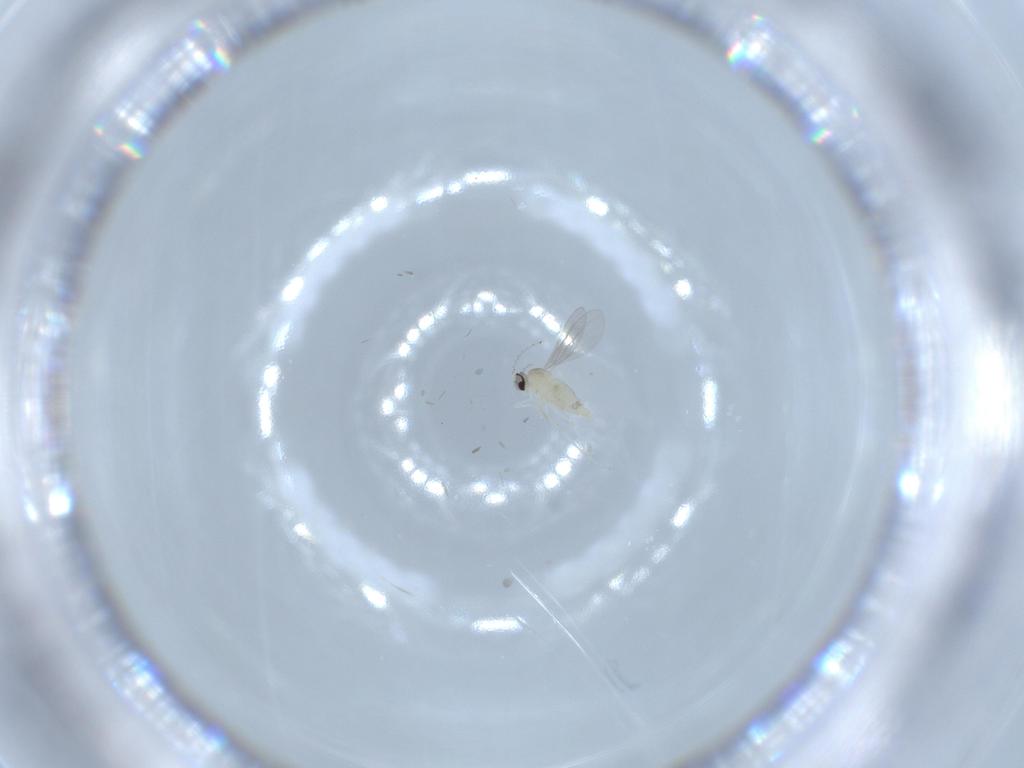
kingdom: Animalia
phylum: Arthropoda
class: Insecta
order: Diptera
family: Cecidomyiidae
